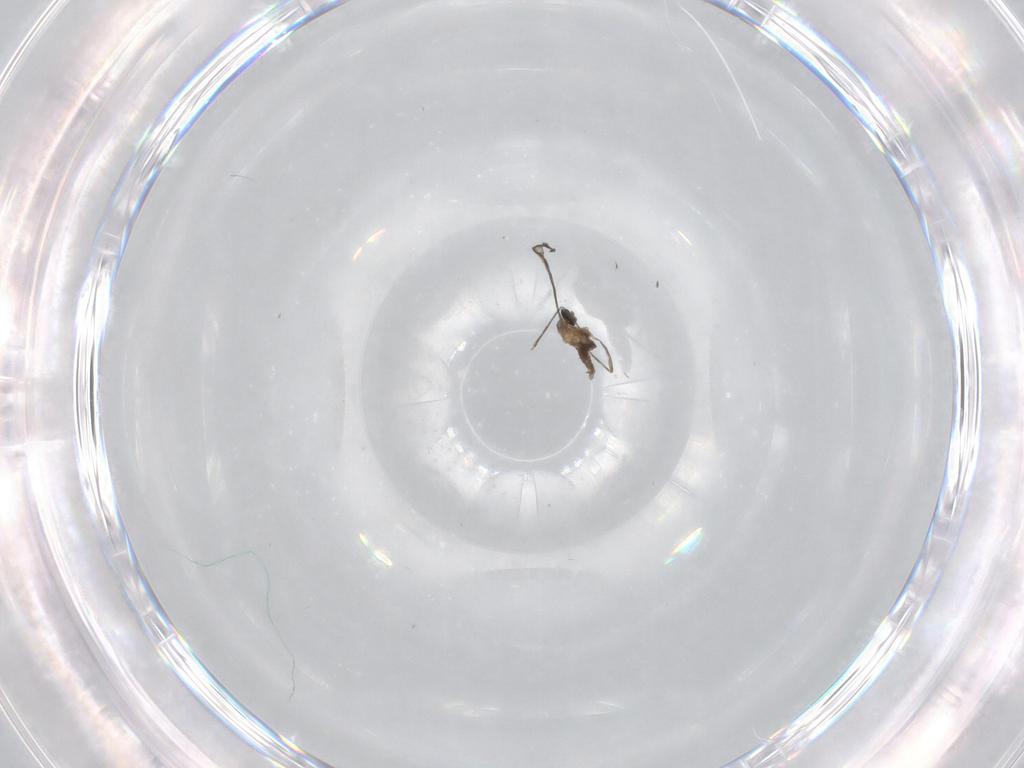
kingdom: Animalia
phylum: Arthropoda
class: Insecta
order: Diptera
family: Cecidomyiidae
